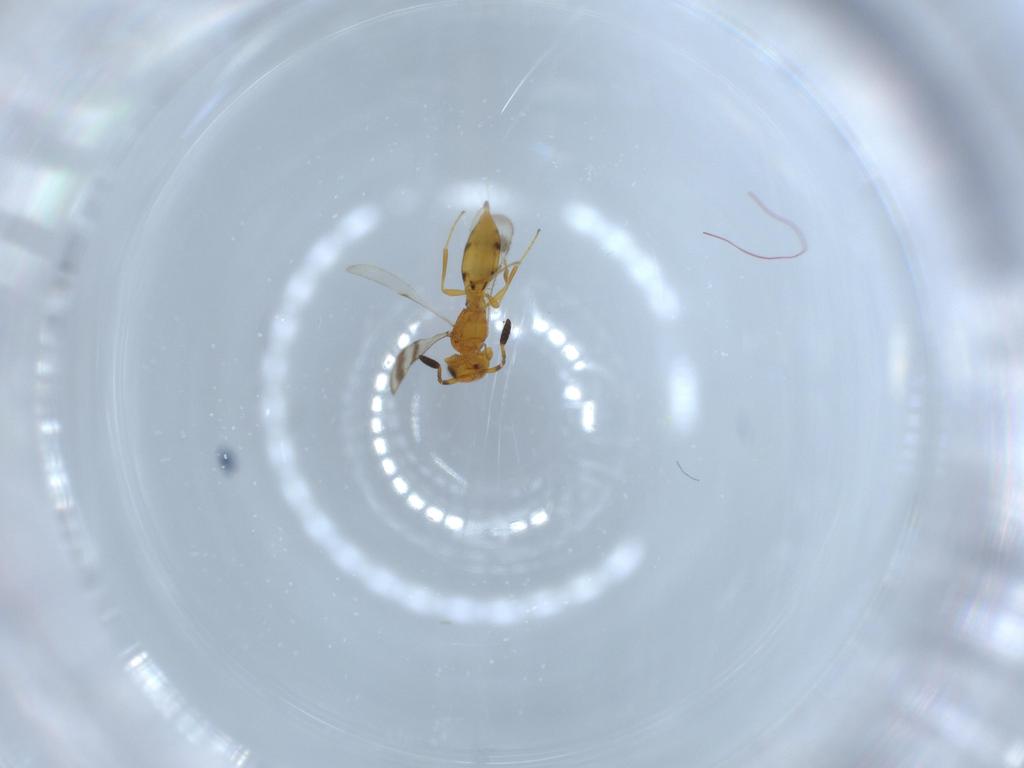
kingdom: Animalia
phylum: Arthropoda
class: Insecta
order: Hymenoptera
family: Scelionidae
